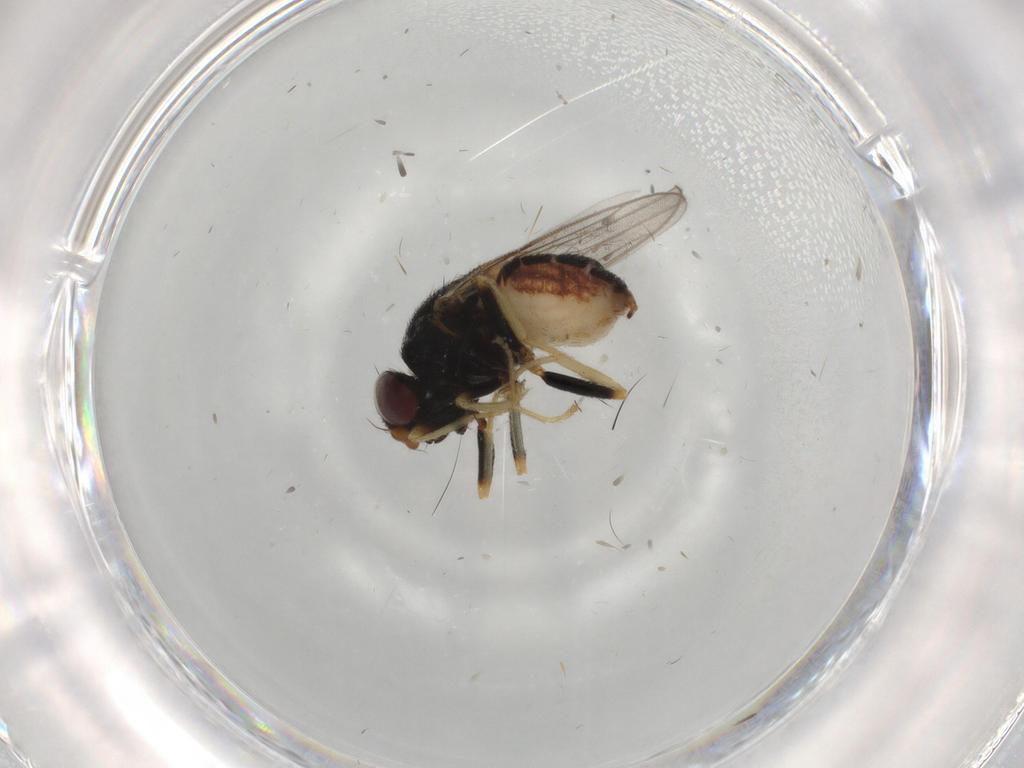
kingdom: Animalia
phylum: Arthropoda
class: Insecta
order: Diptera
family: Chloropidae
